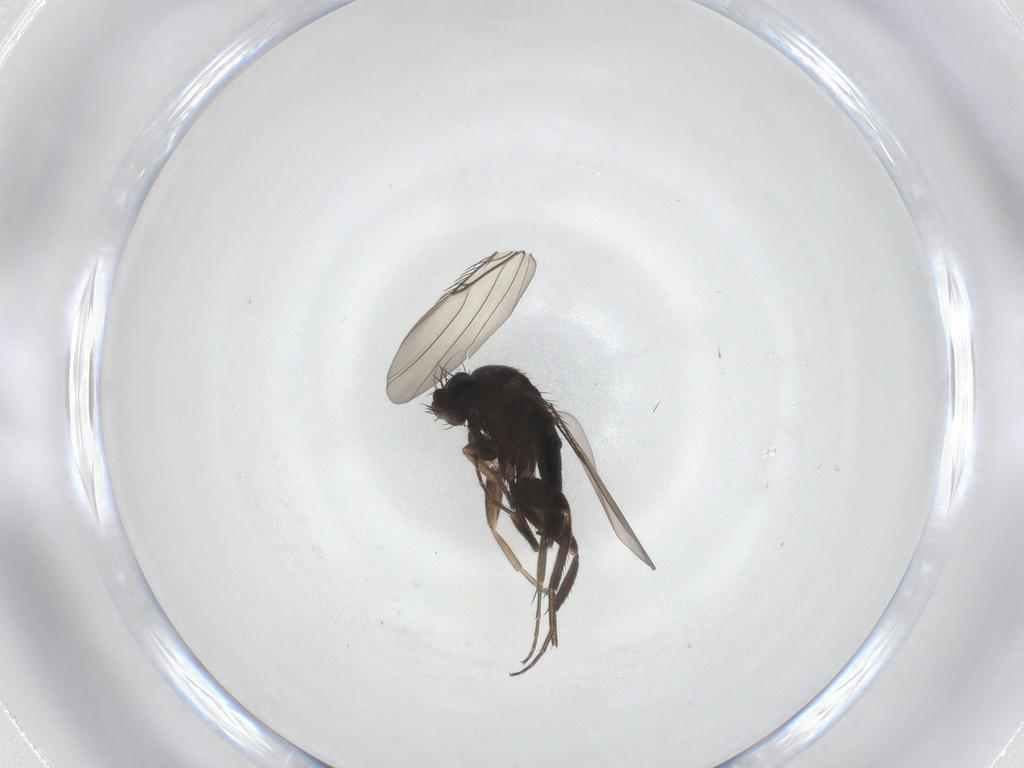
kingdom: Animalia
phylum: Arthropoda
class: Insecta
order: Diptera
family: Phoridae
